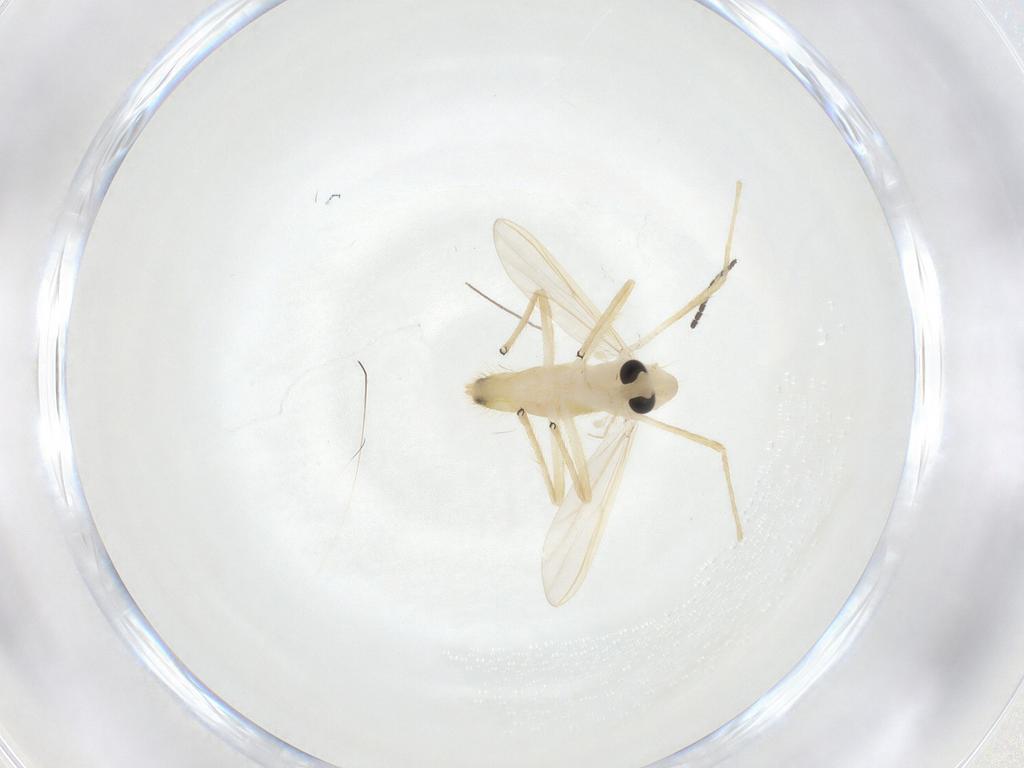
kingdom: Animalia
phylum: Arthropoda
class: Insecta
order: Diptera
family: Chironomidae
